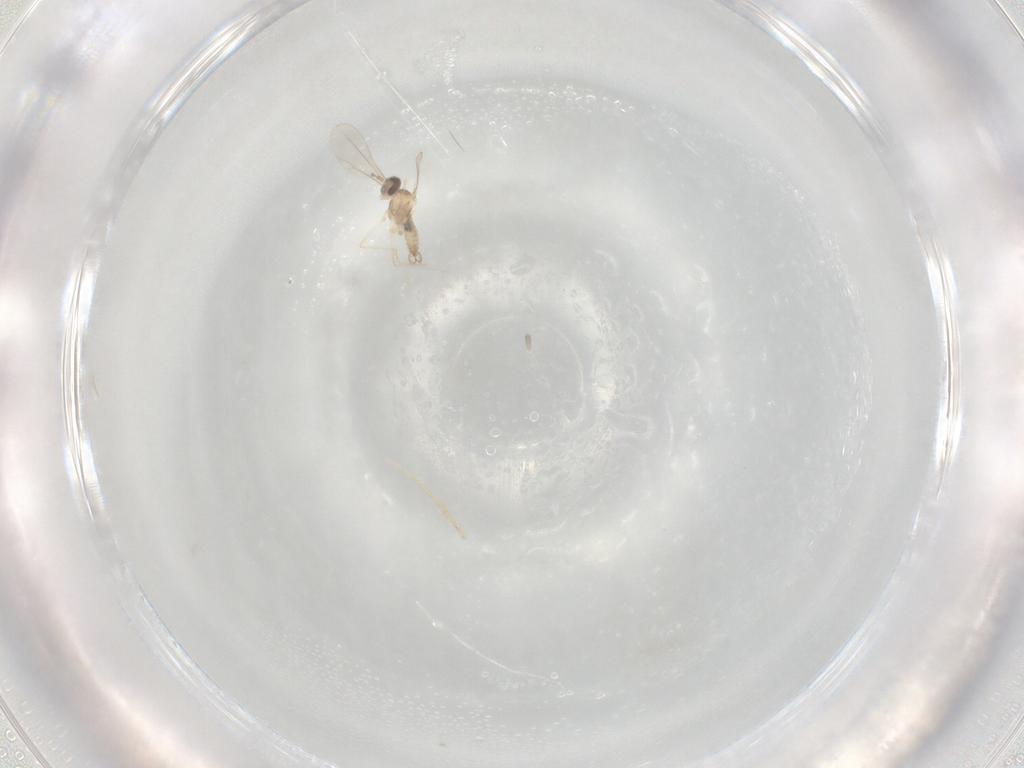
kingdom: Animalia
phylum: Arthropoda
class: Insecta
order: Diptera
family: Cecidomyiidae
